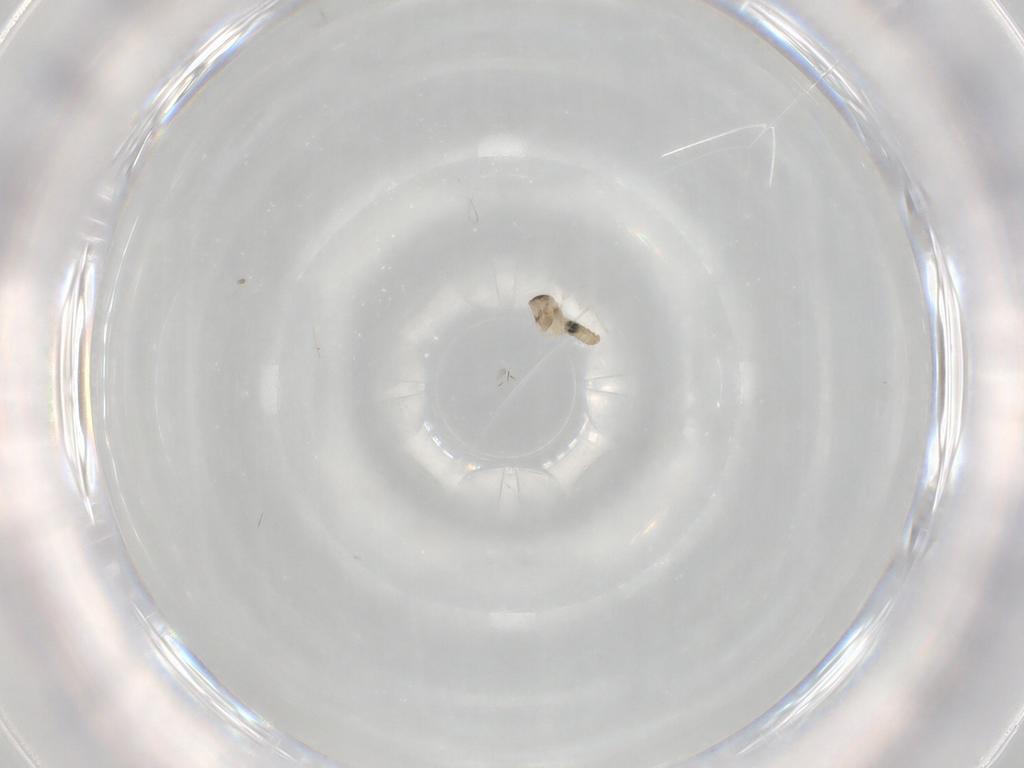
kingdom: Animalia
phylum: Arthropoda
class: Insecta
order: Diptera
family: Cecidomyiidae
